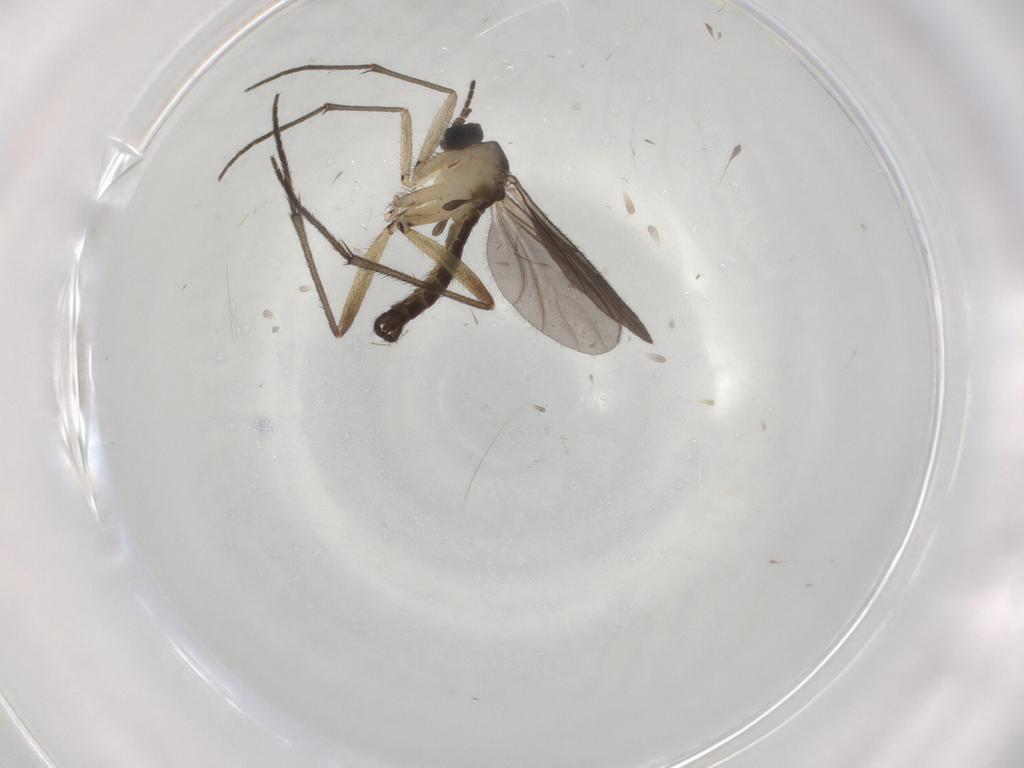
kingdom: Animalia
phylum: Arthropoda
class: Insecta
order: Diptera
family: Sciaridae
